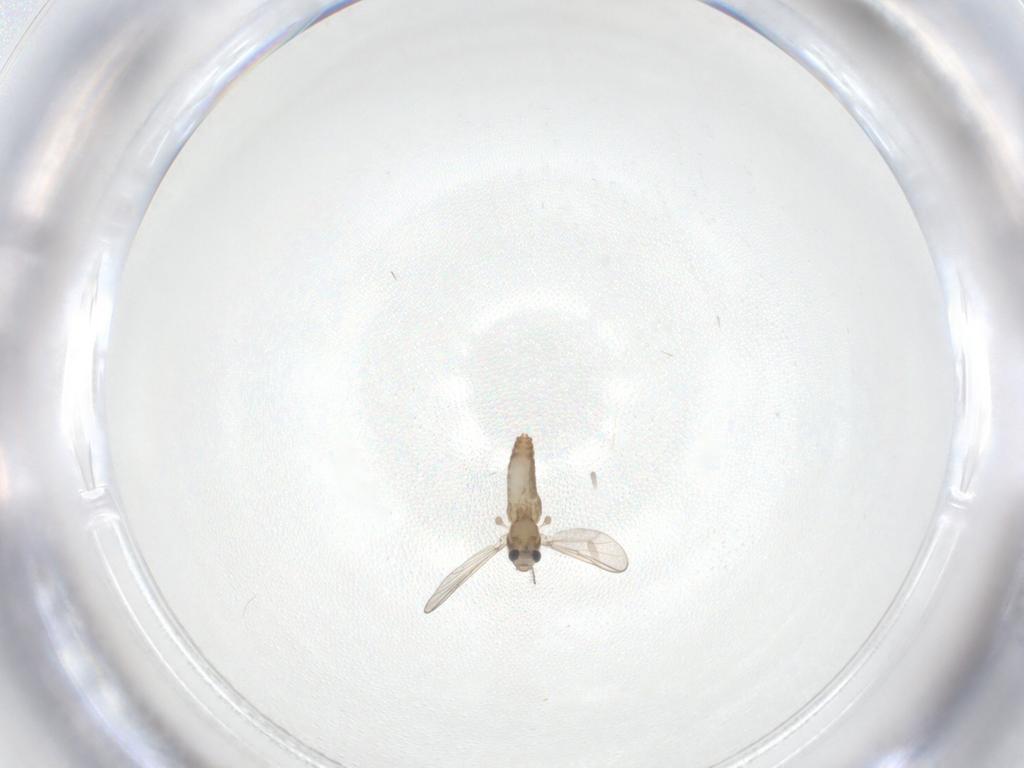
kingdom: Animalia
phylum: Arthropoda
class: Insecta
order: Diptera
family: Chironomidae
